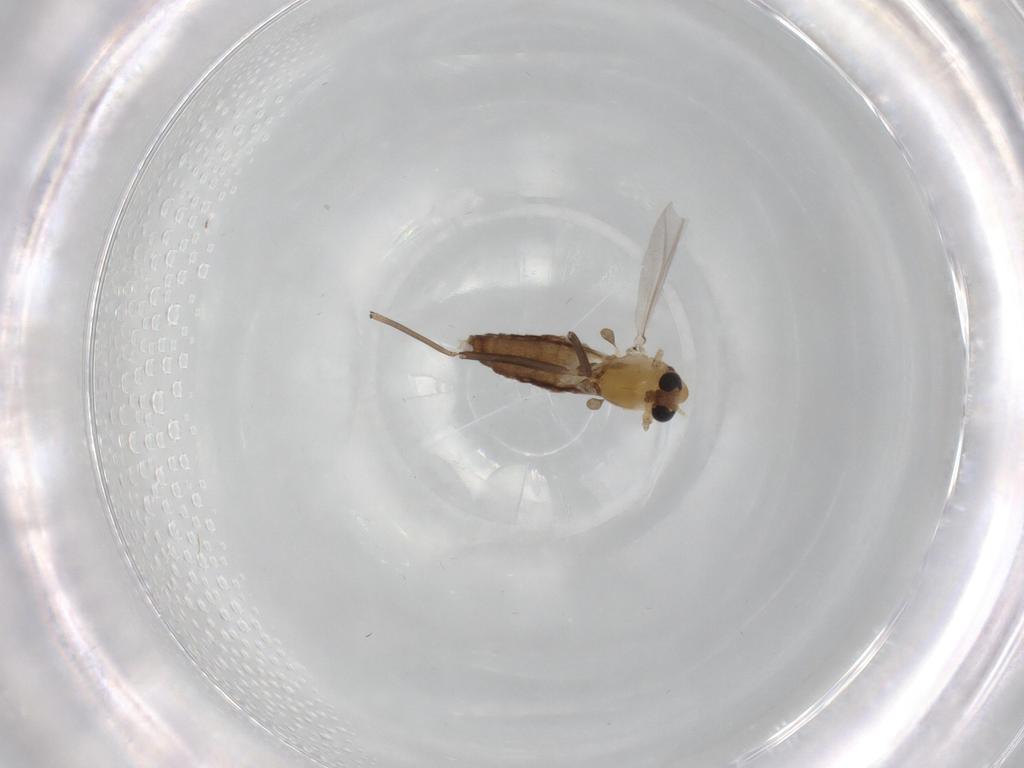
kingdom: Animalia
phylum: Arthropoda
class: Insecta
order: Diptera
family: Chironomidae
